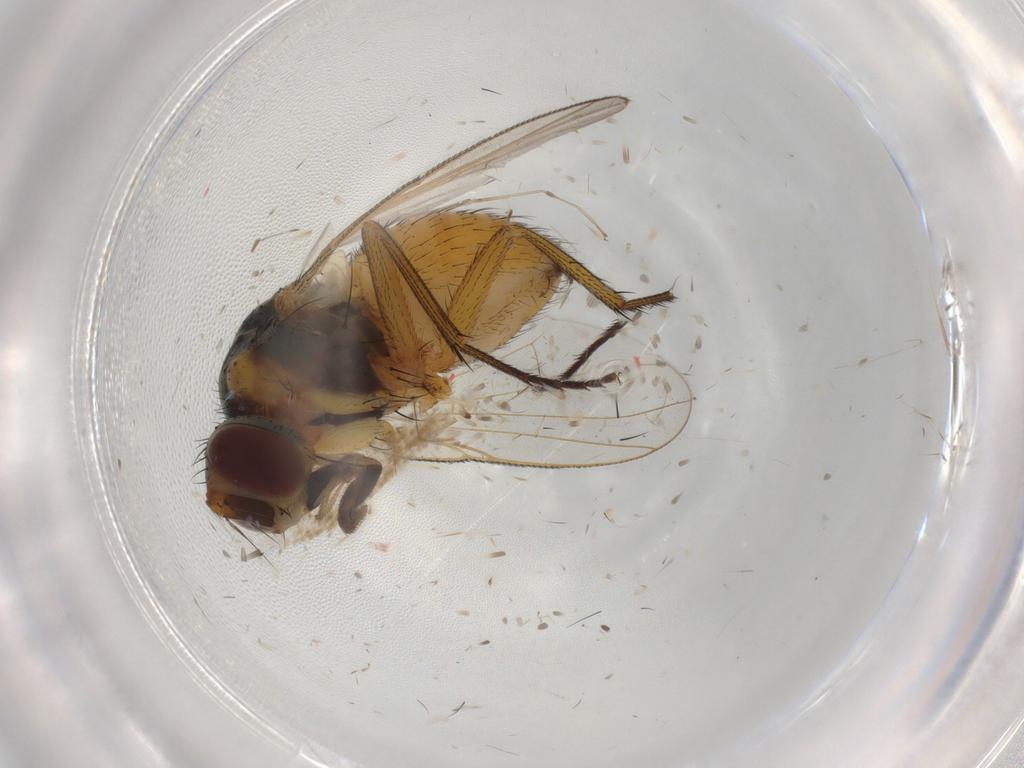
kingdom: Animalia
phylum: Arthropoda
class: Insecta
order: Diptera
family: Muscidae
